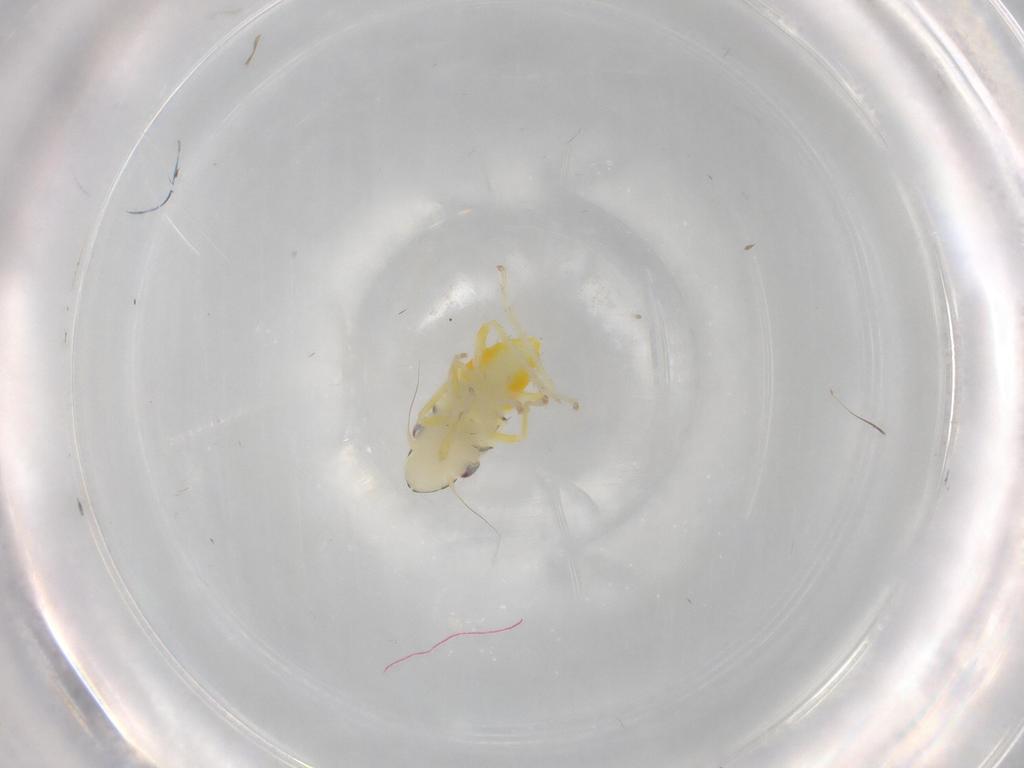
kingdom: Animalia
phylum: Arthropoda
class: Insecta
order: Hemiptera
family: Cicadellidae
